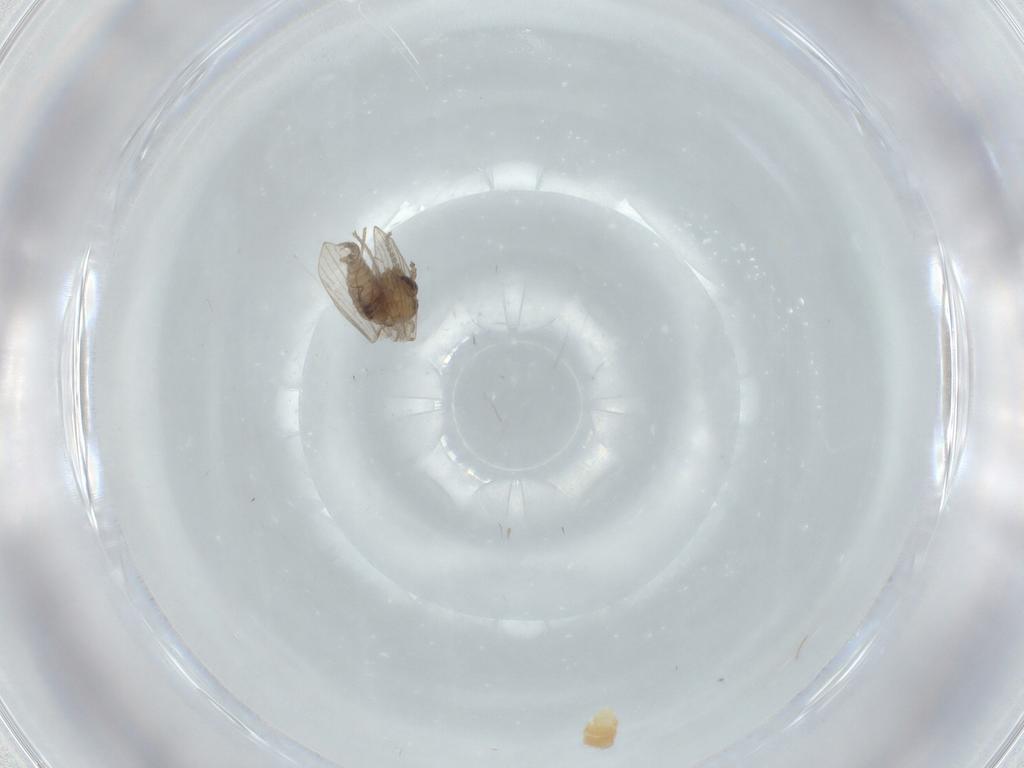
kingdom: Animalia
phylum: Arthropoda
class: Insecta
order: Diptera
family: Psychodidae
